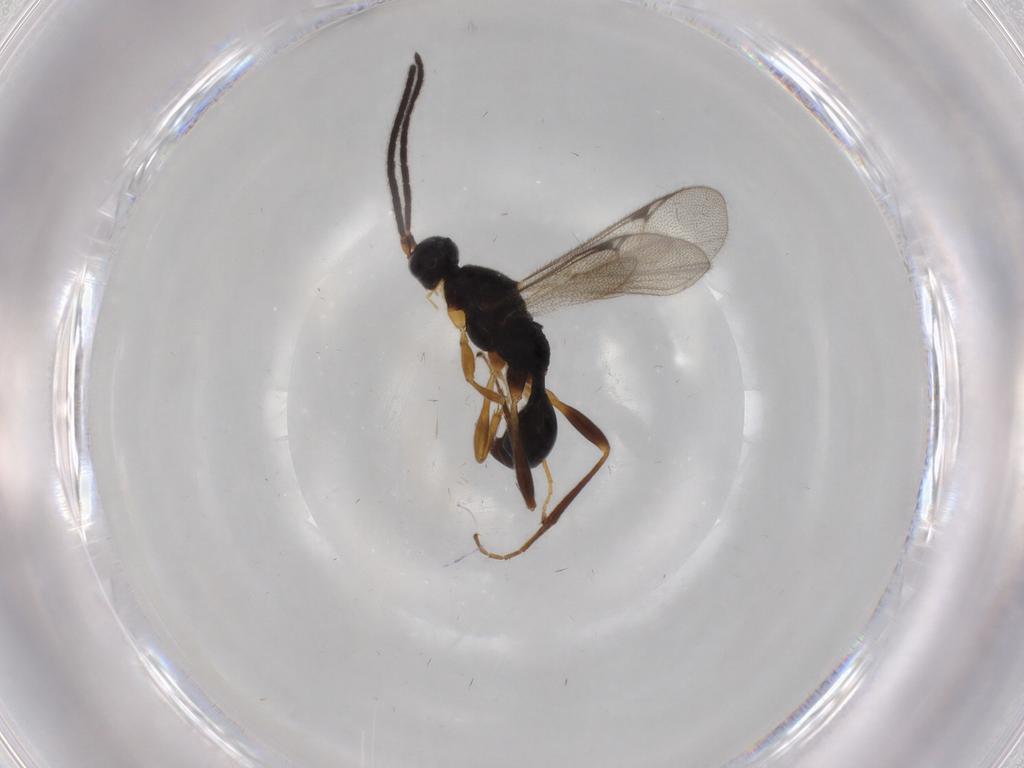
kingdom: Animalia
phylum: Arthropoda
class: Insecta
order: Hymenoptera
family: Proctotrupidae
